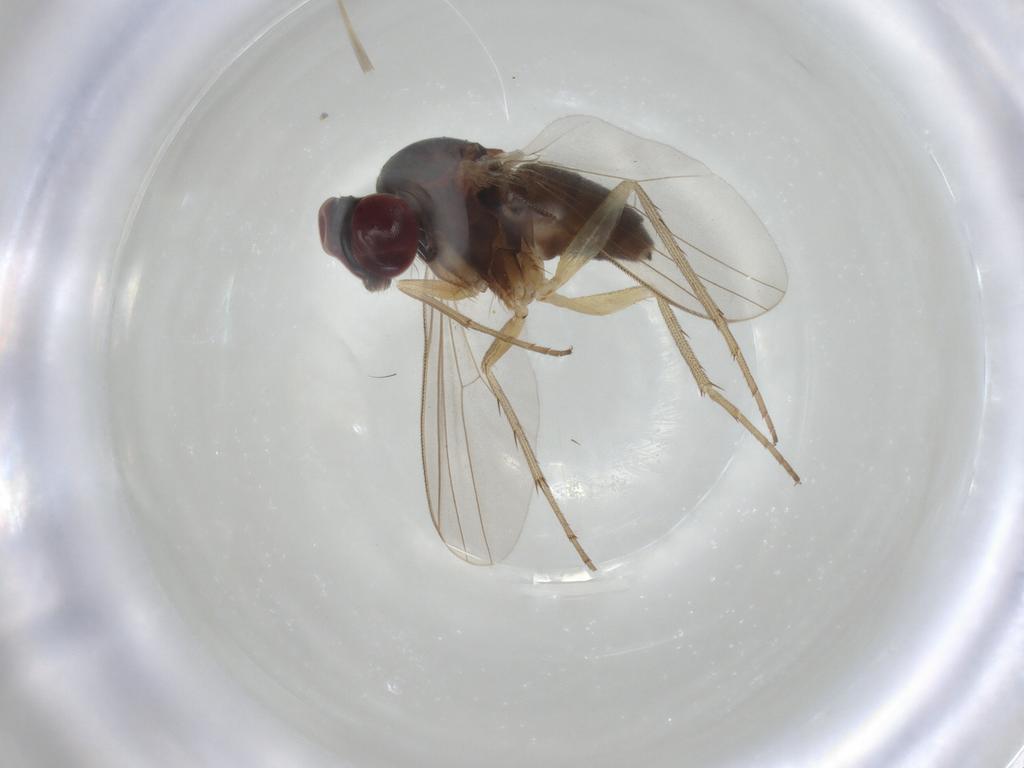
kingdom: Animalia
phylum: Arthropoda
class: Insecta
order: Diptera
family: Dolichopodidae
